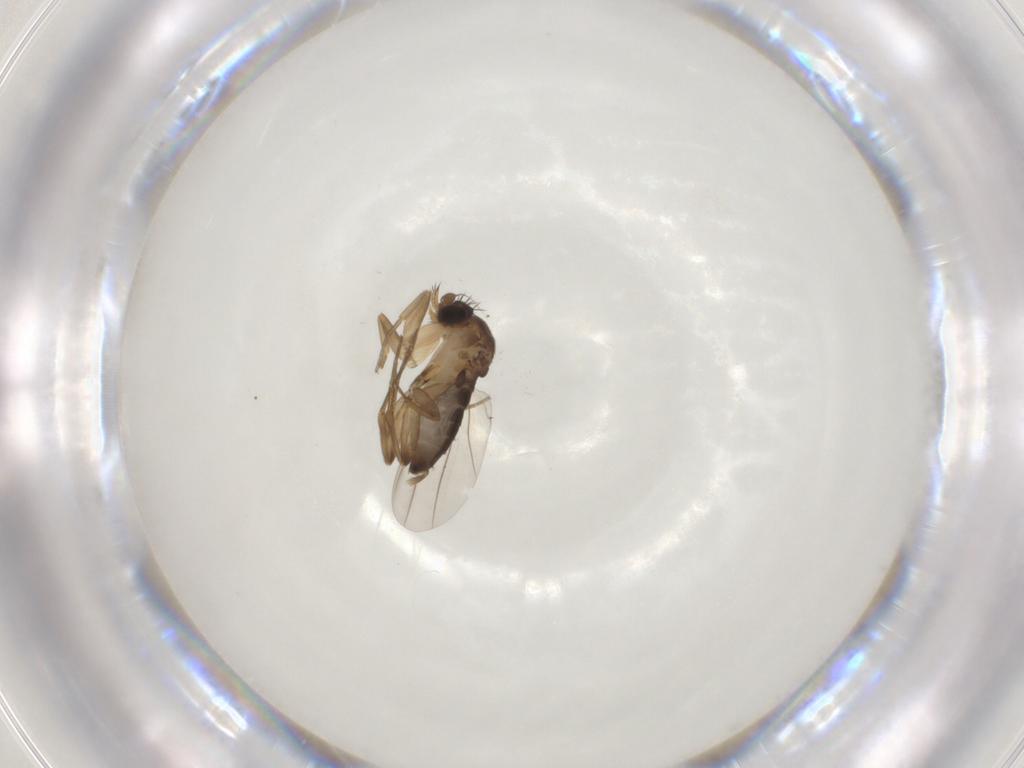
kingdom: Animalia
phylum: Arthropoda
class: Insecta
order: Diptera
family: Phoridae
